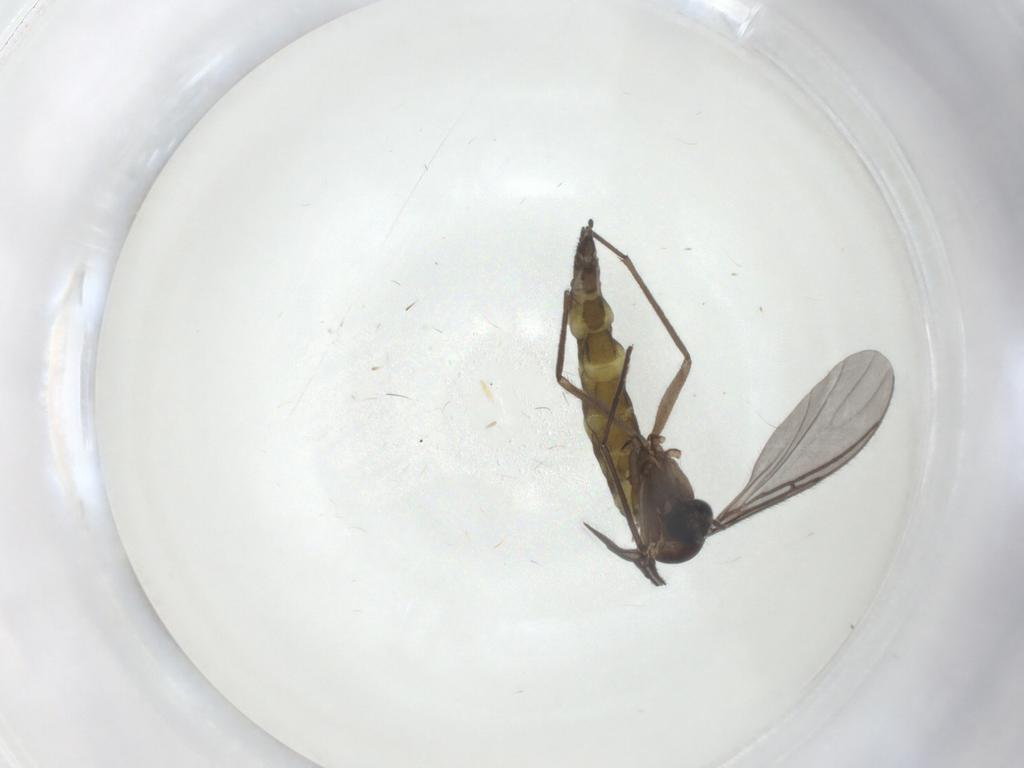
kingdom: Animalia
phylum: Arthropoda
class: Insecta
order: Diptera
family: Sciaridae
